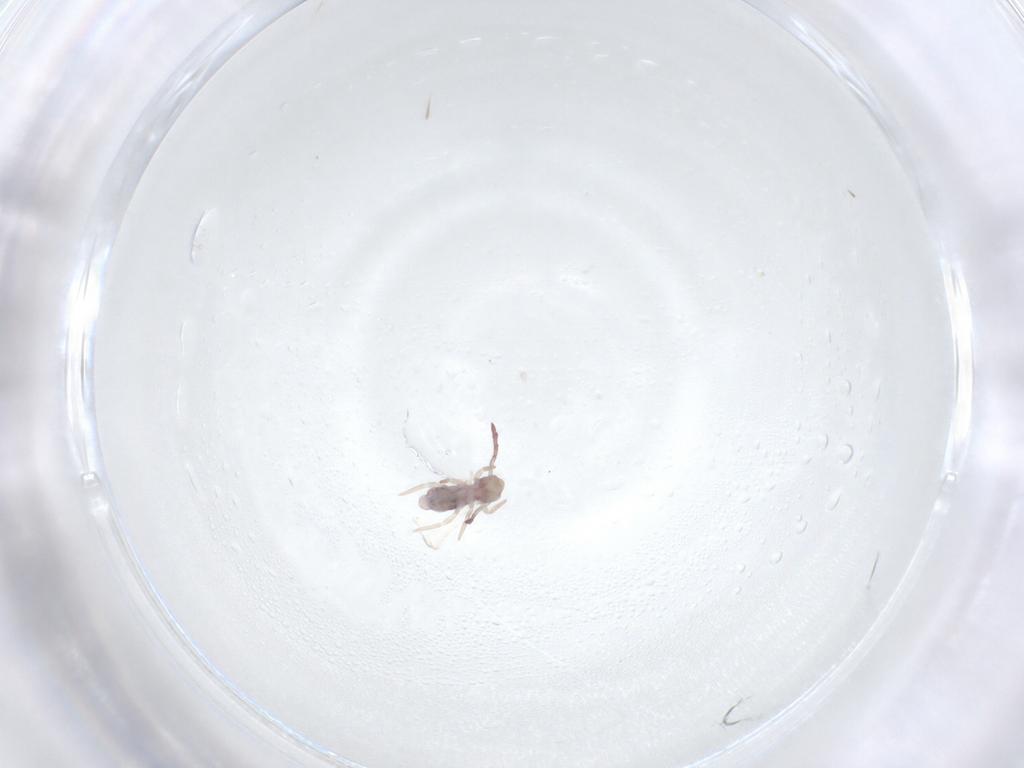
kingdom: Animalia
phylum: Arthropoda
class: Collembola
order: Symphypleona
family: Dicyrtomidae
